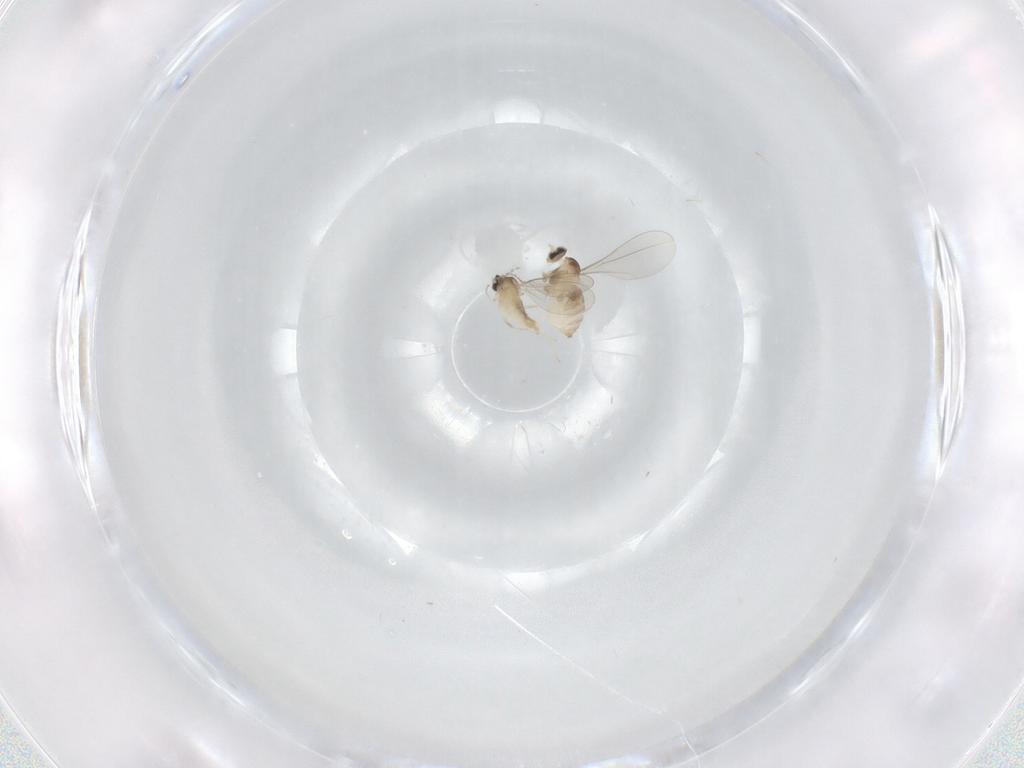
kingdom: Animalia
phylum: Arthropoda
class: Insecta
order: Diptera
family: Cecidomyiidae
